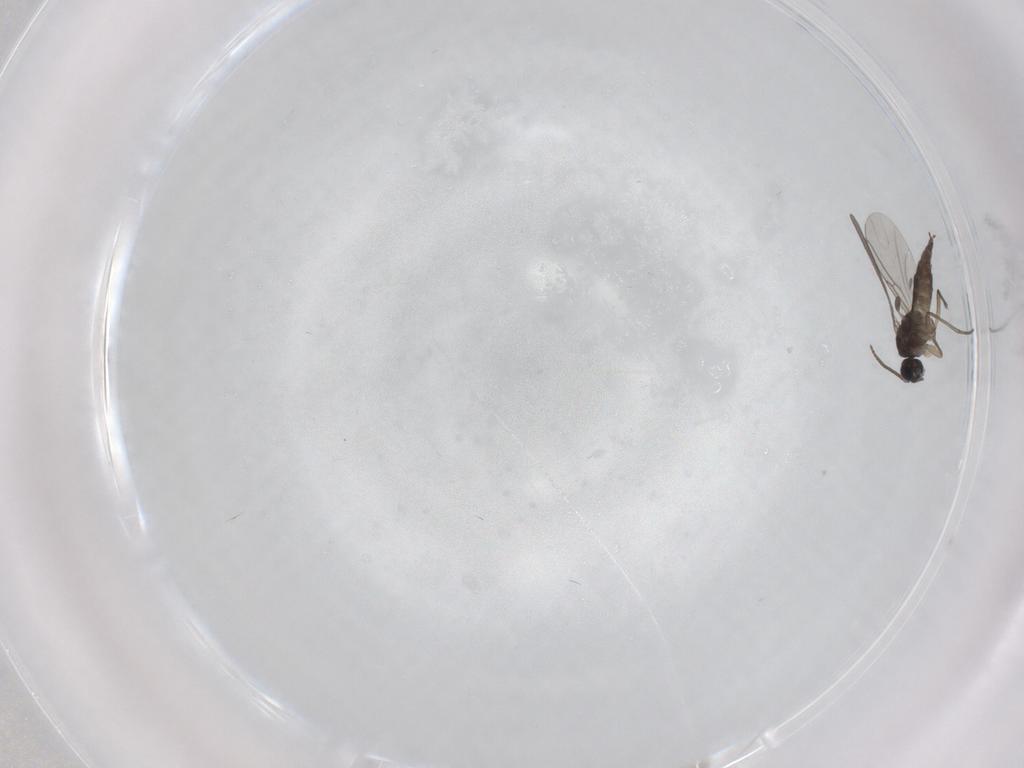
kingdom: Animalia
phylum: Arthropoda
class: Insecta
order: Diptera
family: Sciaridae
